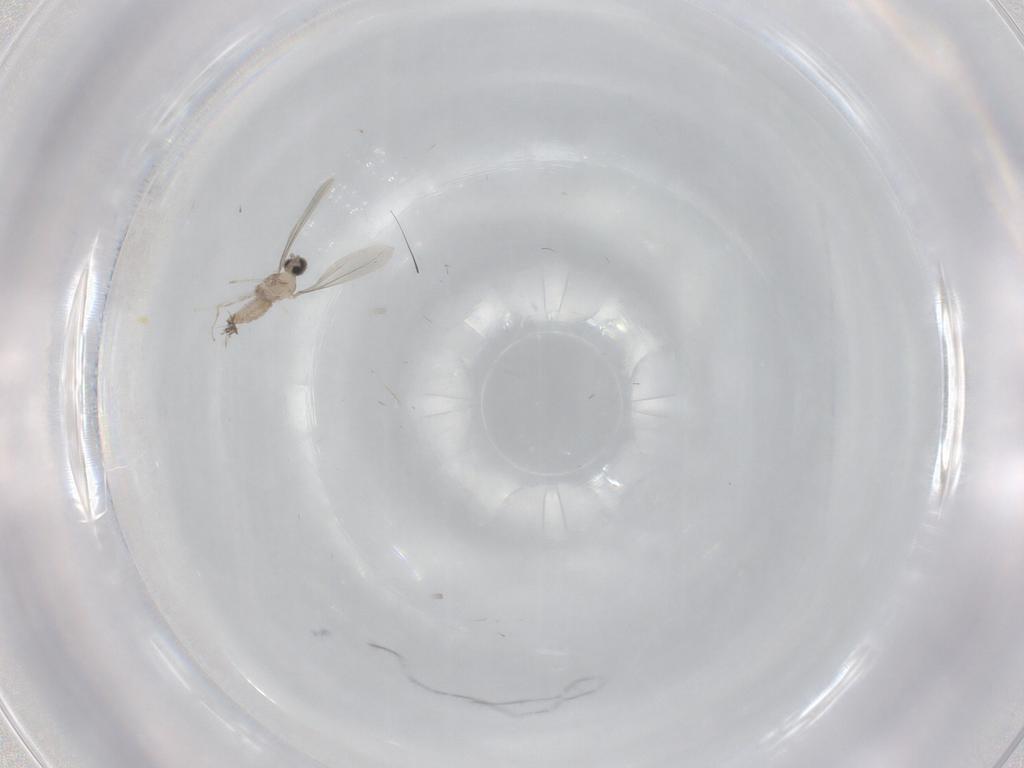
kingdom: Animalia
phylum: Arthropoda
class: Insecta
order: Diptera
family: Cecidomyiidae
